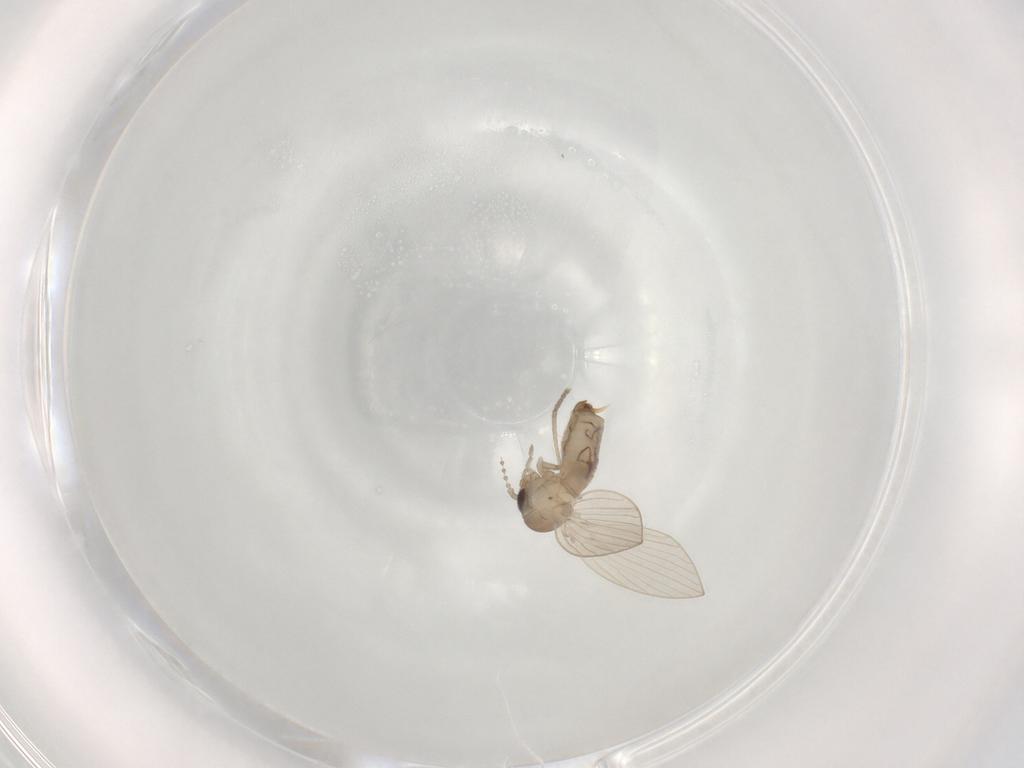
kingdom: Animalia
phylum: Arthropoda
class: Insecta
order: Diptera
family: Psychodidae
